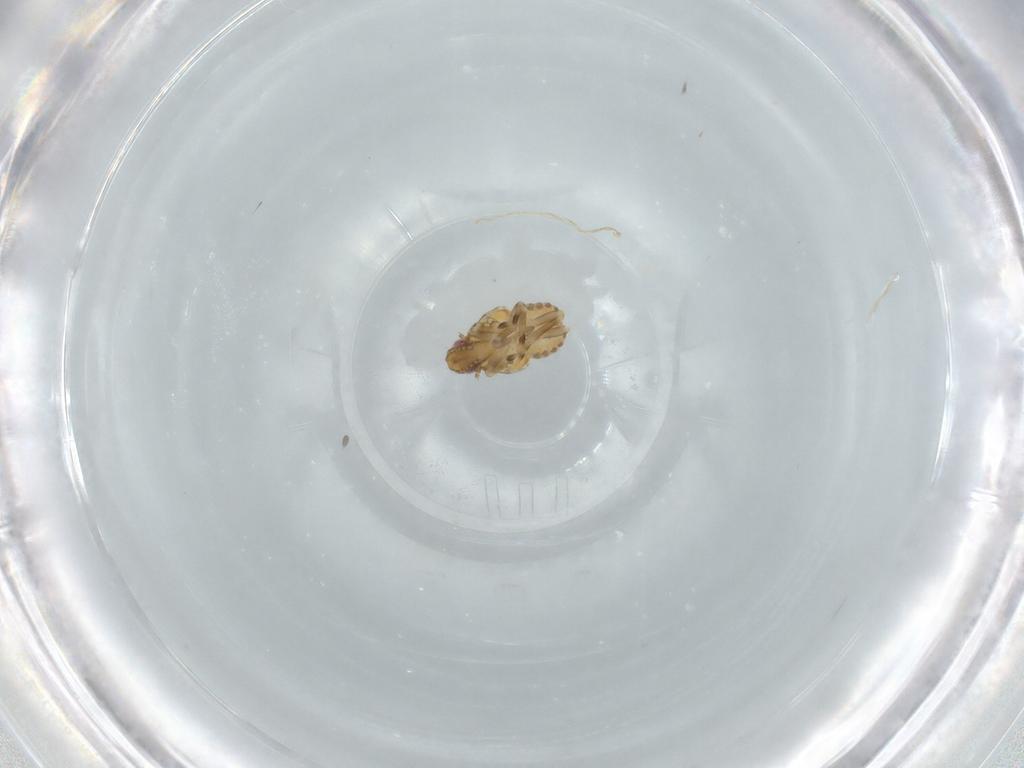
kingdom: Animalia
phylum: Arthropoda
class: Insecta
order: Hemiptera
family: Flatidae
